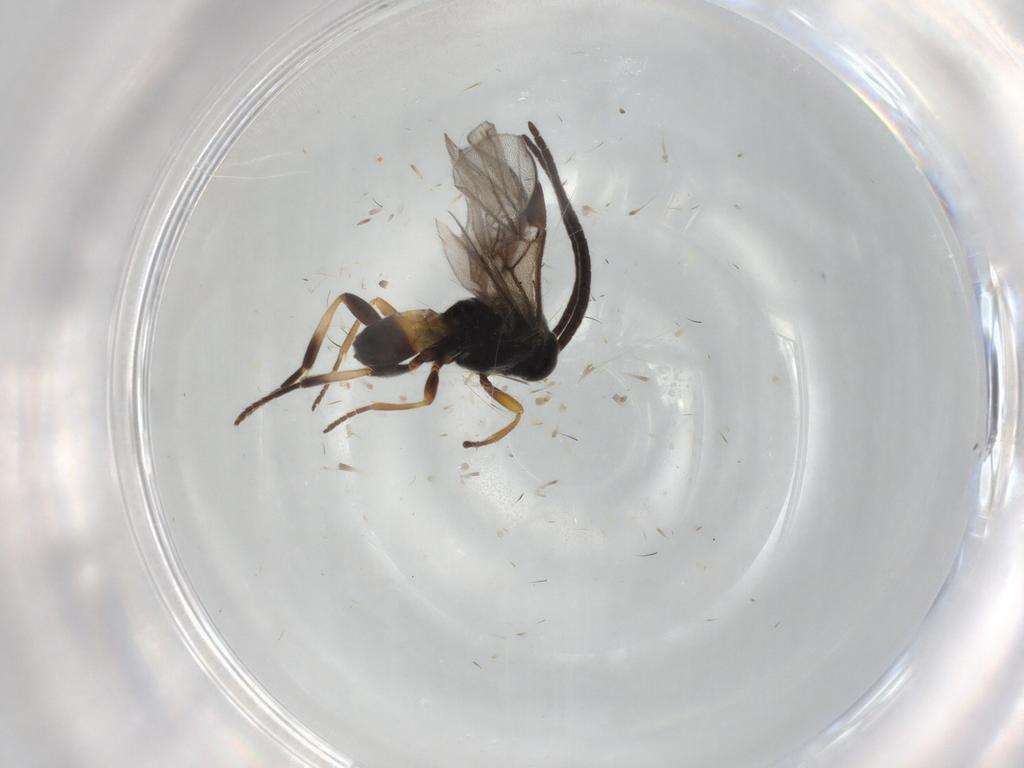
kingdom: Animalia
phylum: Arthropoda
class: Insecta
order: Hymenoptera
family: Braconidae
